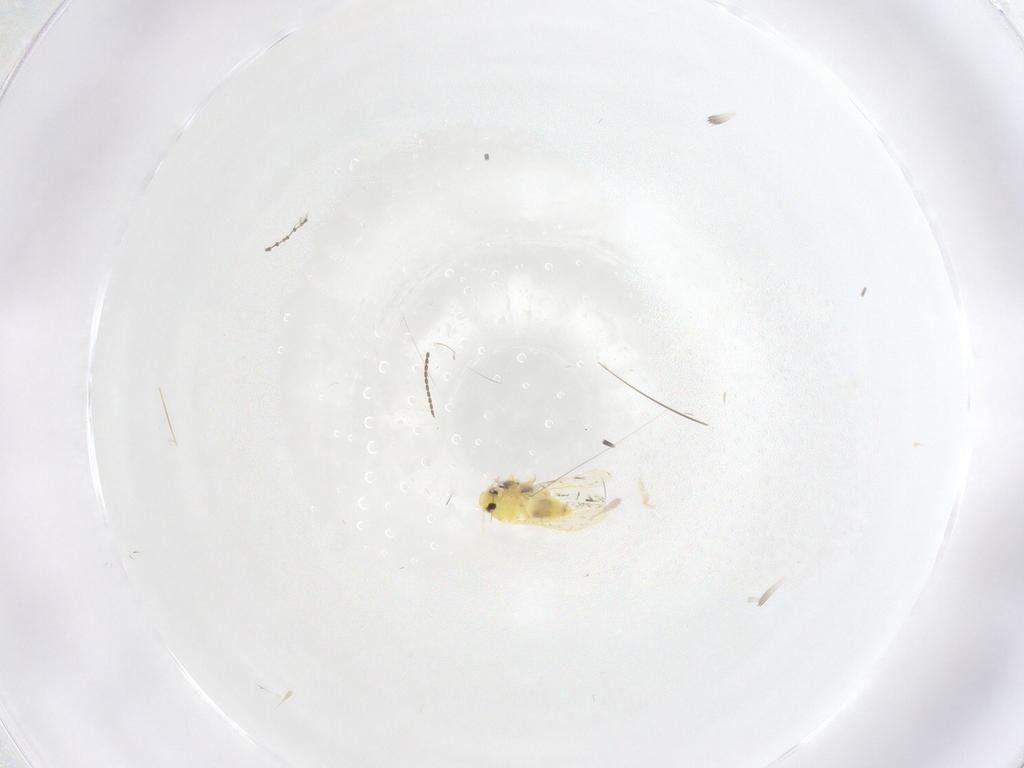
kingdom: Animalia
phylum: Arthropoda
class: Insecta
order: Hemiptera
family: Aleyrodidae
